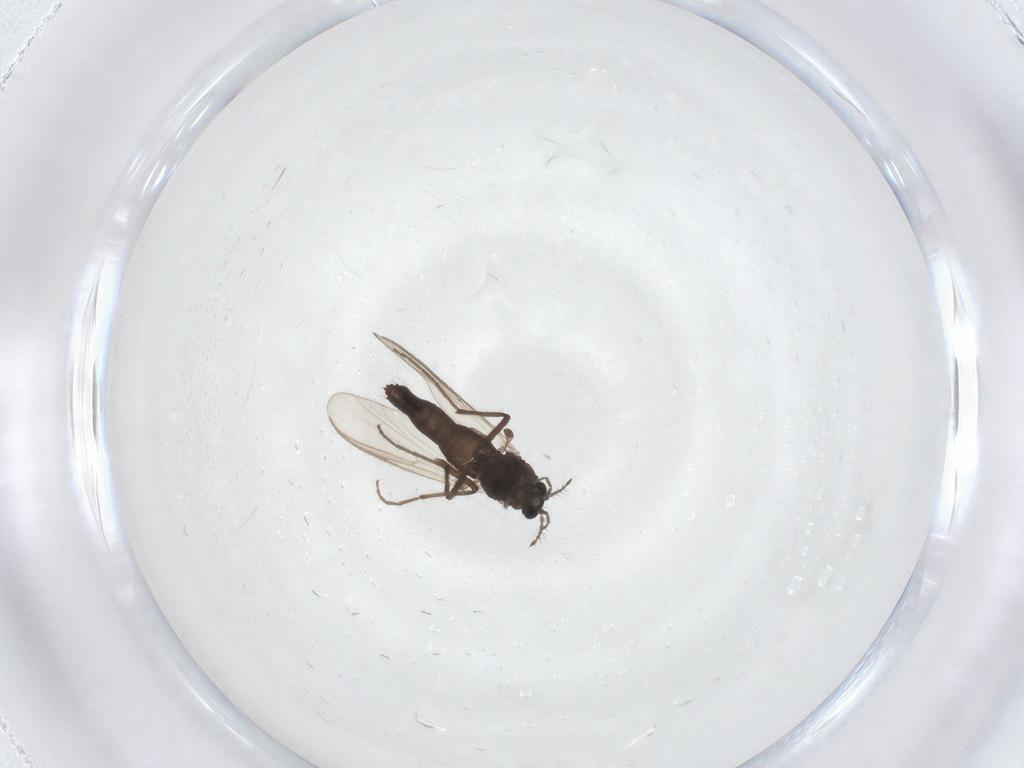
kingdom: Animalia
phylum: Arthropoda
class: Insecta
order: Diptera
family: Chironomidae
